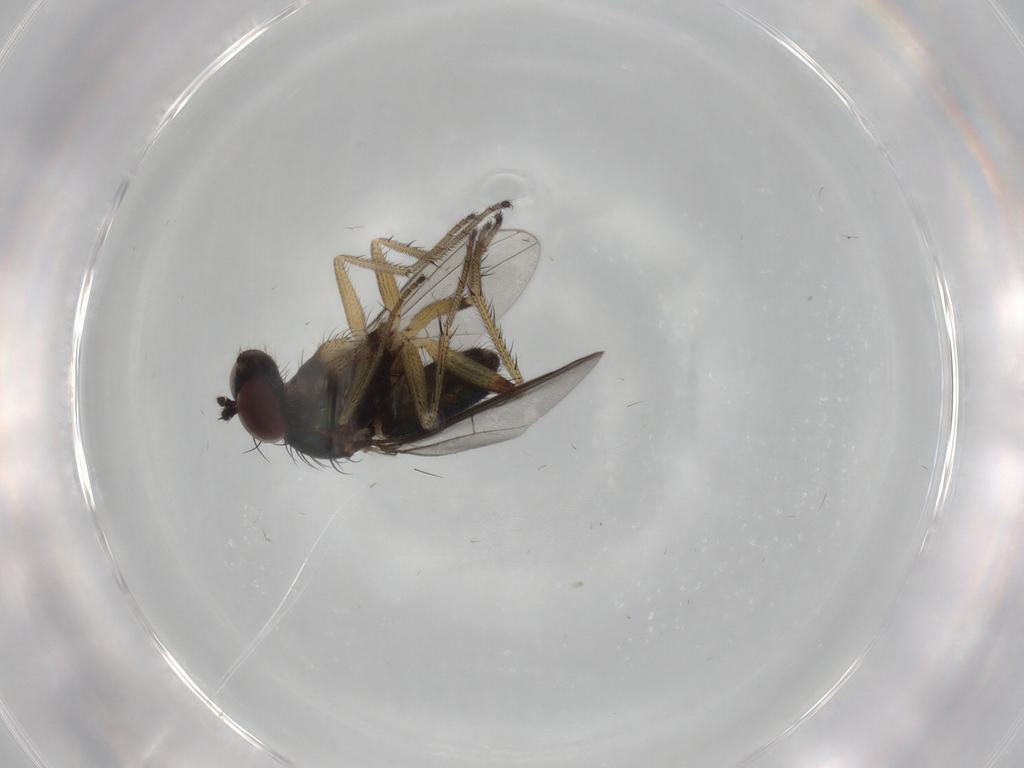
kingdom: Animalia
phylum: Arthropoda
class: Insecta
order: Diptera
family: Dolichopodidae
